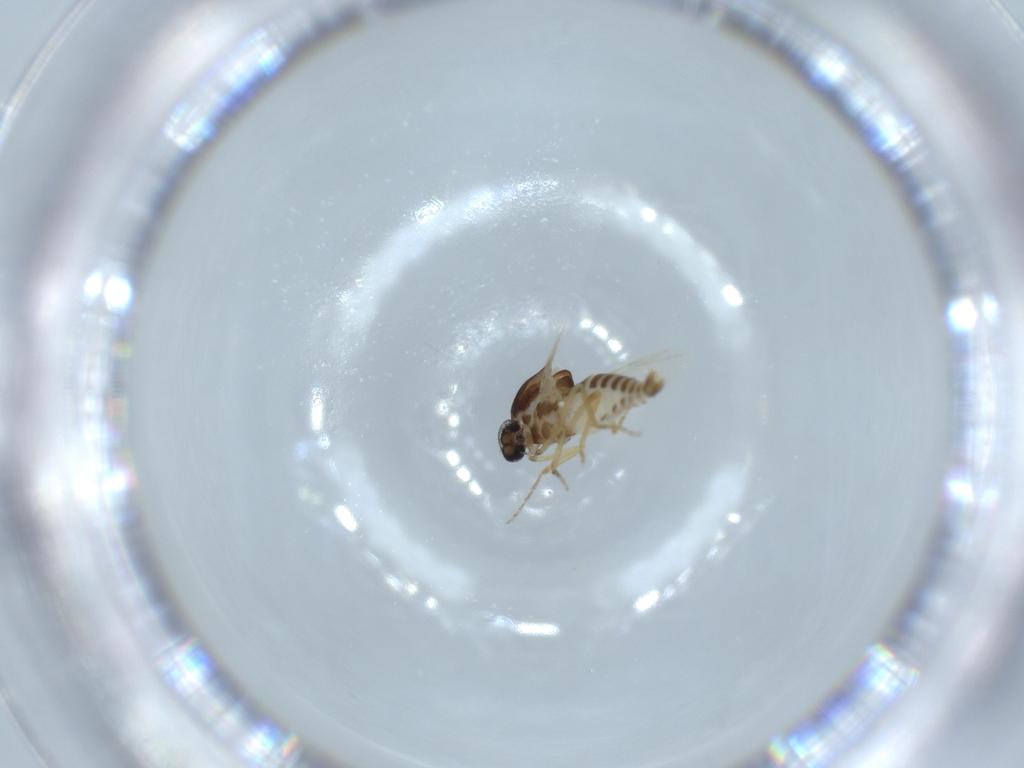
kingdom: Animalia
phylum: Arthropoda
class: Insecta
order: Diptera
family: Ceratopogonidae
